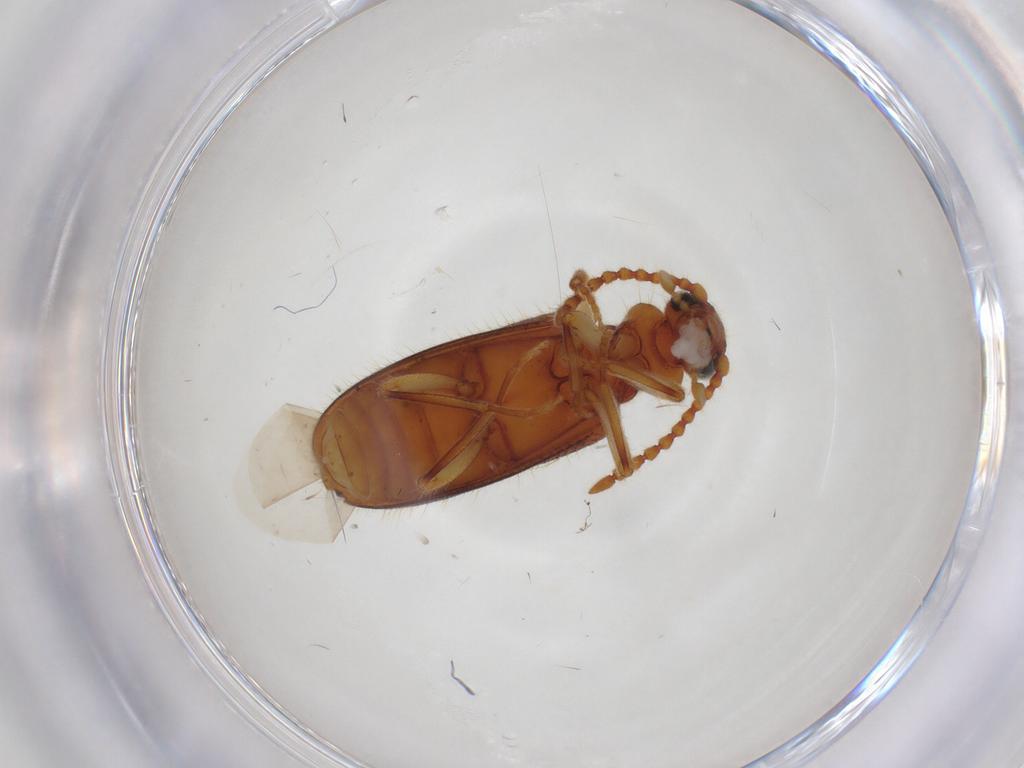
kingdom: Animalia
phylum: Arthropoda
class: Insecta
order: Coleoptera
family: Anthicidae
